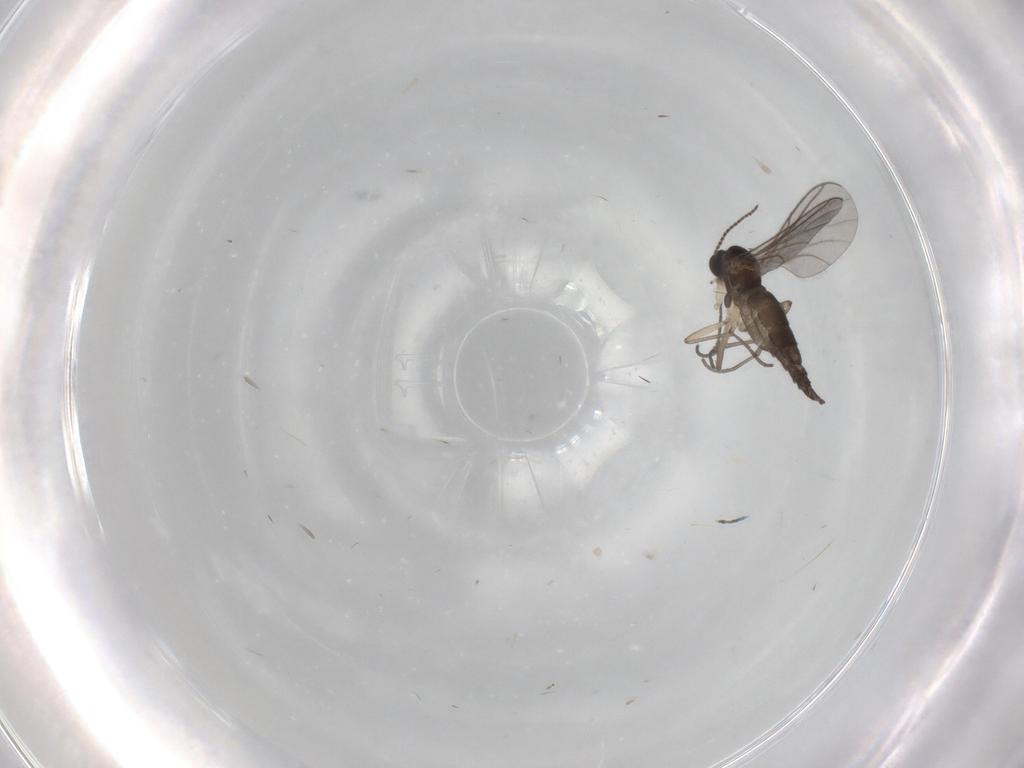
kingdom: Animalia
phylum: Arthropoda
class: Insecta
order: Diptera
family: Sciaridae
